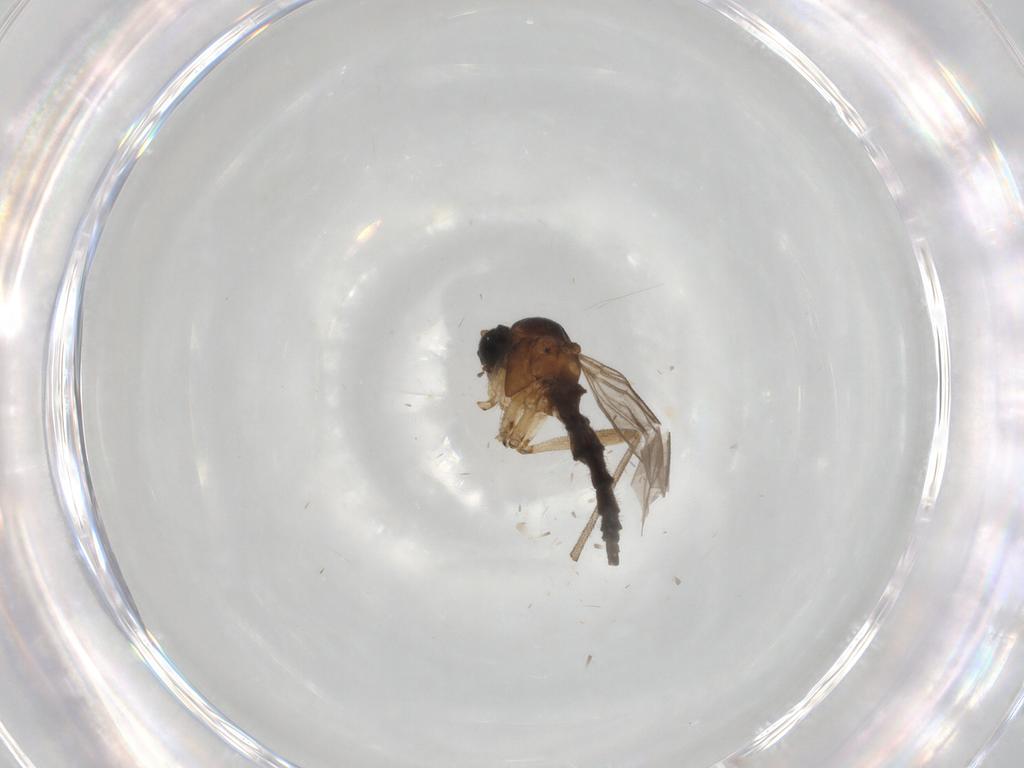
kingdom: Animalia
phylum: Arthropoda
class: Insecta
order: Diptera
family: Sciaridae
